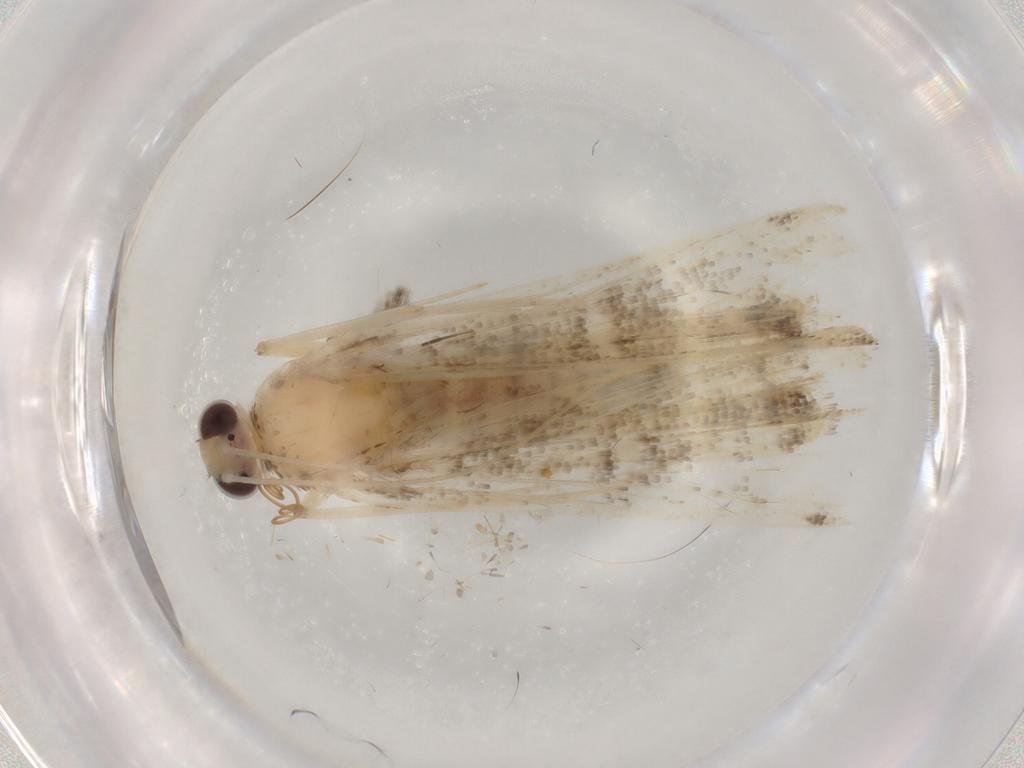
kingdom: Animalia
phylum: Arthropoda
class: Insecta
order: Lepidoptera
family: Crambidae
